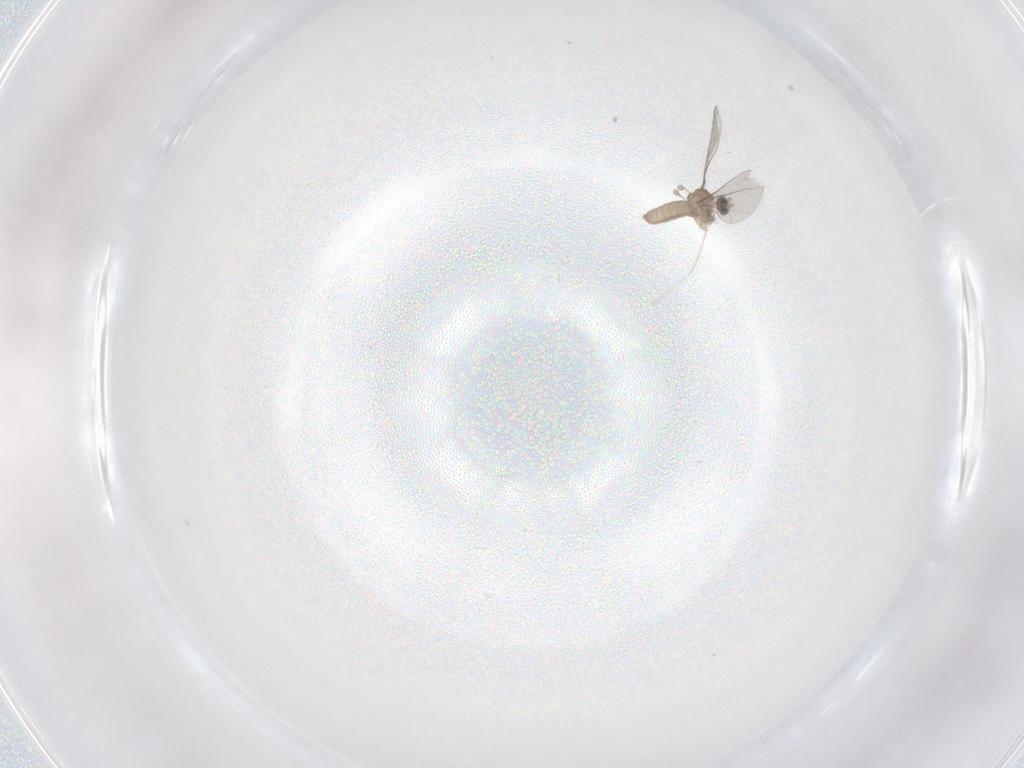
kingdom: Animalia
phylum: Arthropoda
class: Insecta
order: Diptera
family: Cecidomyiidae
